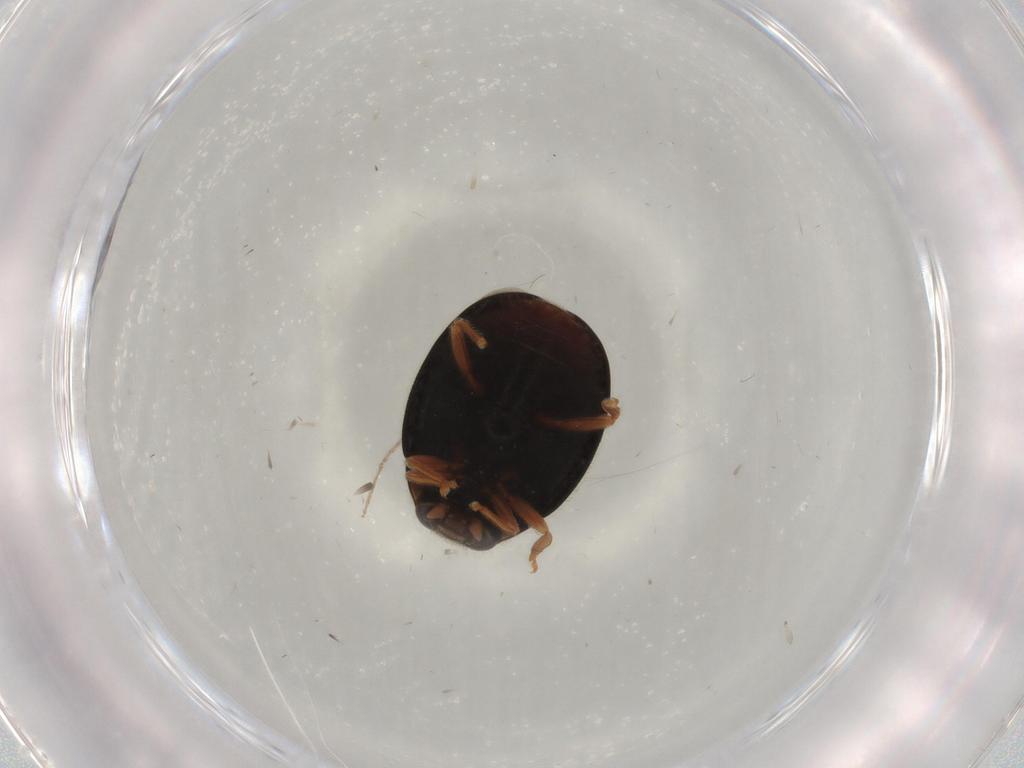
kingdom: Animalia
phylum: Arthropoda
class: Insecta
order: Coleoptera
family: Coccinellidae
